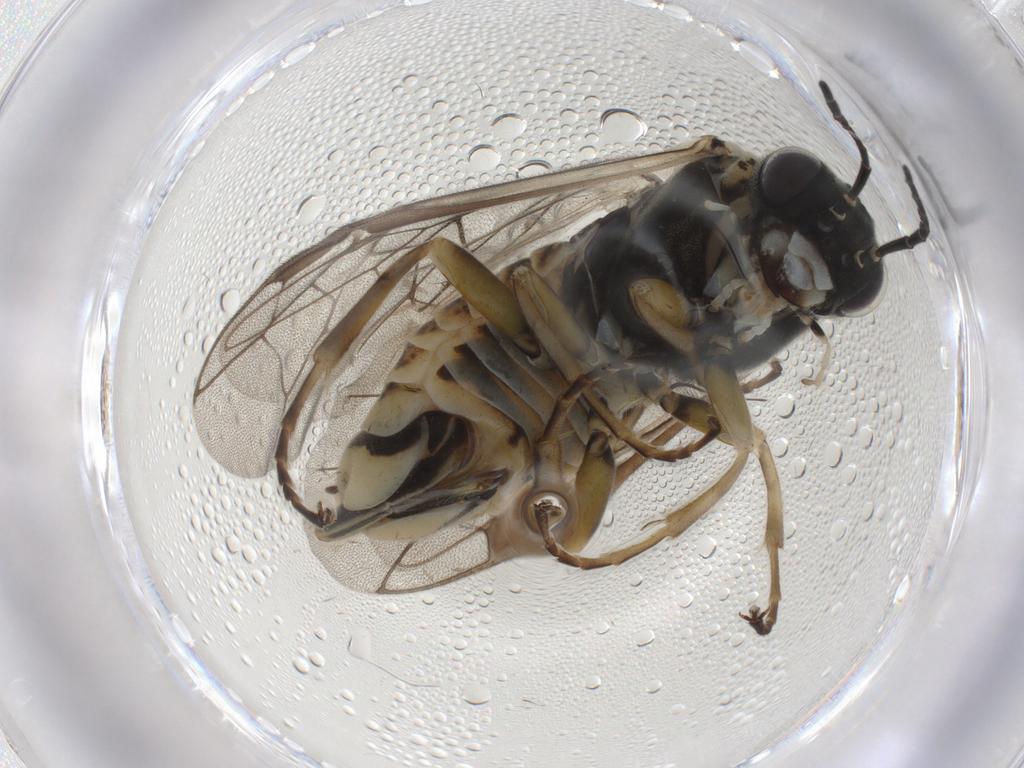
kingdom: Animalia
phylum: Arthropoda
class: Insecta
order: Hymenoptera
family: Tenthredinidae
